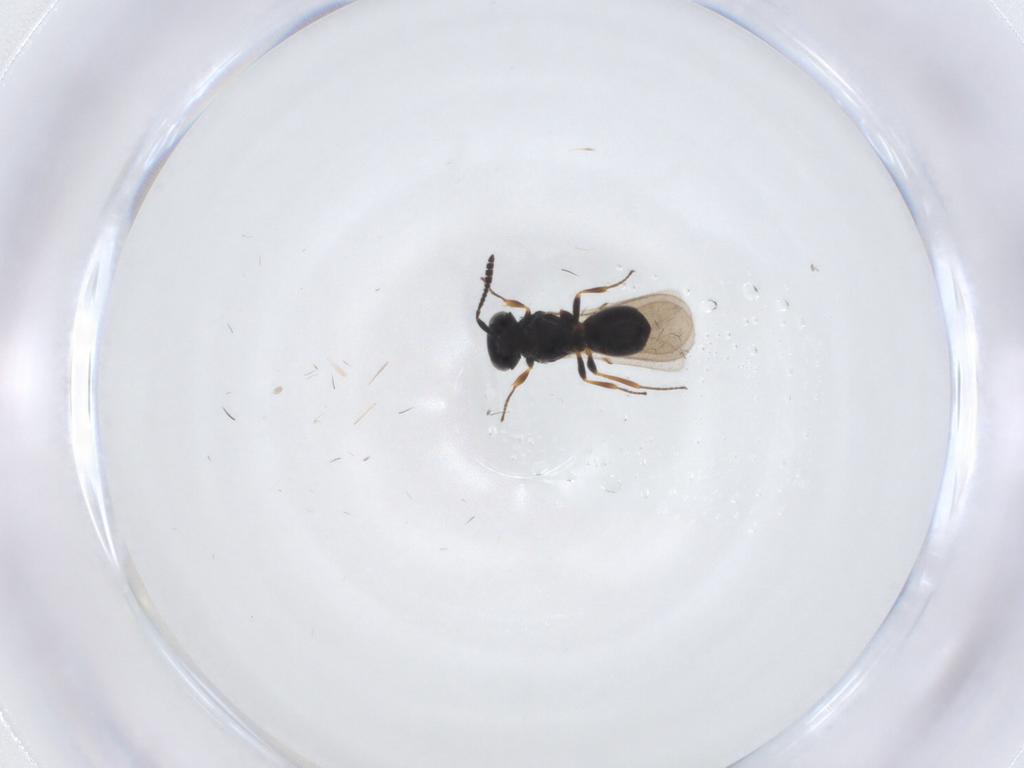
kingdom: Animalia
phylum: Arthropoda
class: Insecta
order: Hymenoptera
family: Scelionidae
